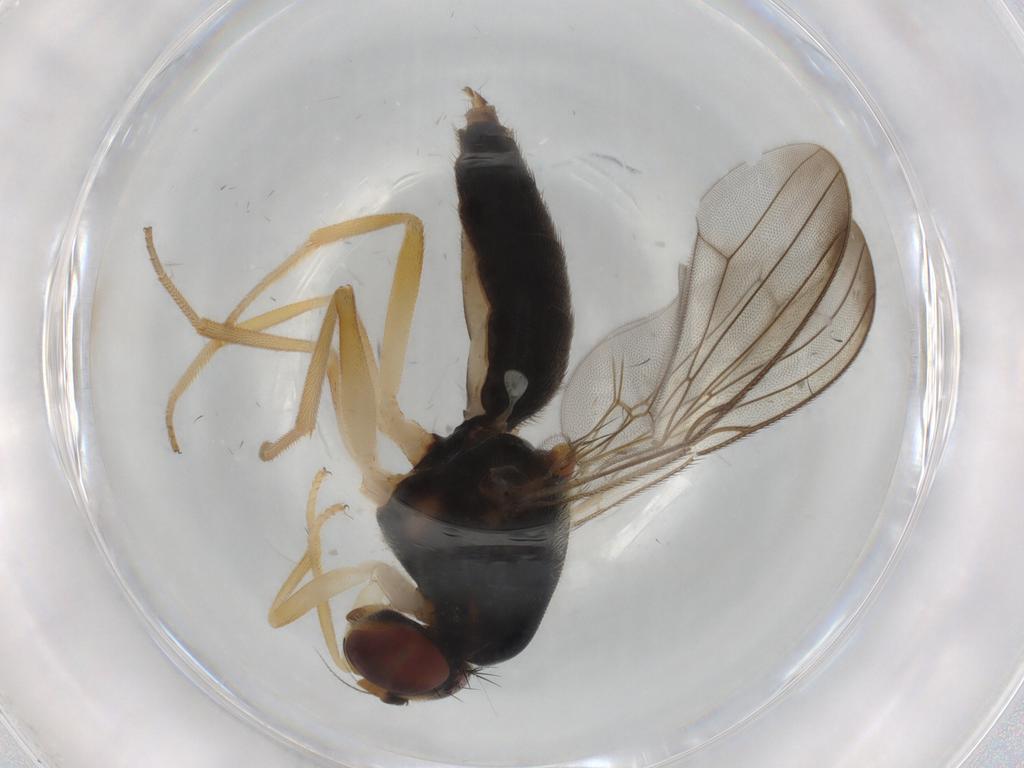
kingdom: Animalia
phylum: Arthropoda
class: Insecta
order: Diptera
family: Psilidae
